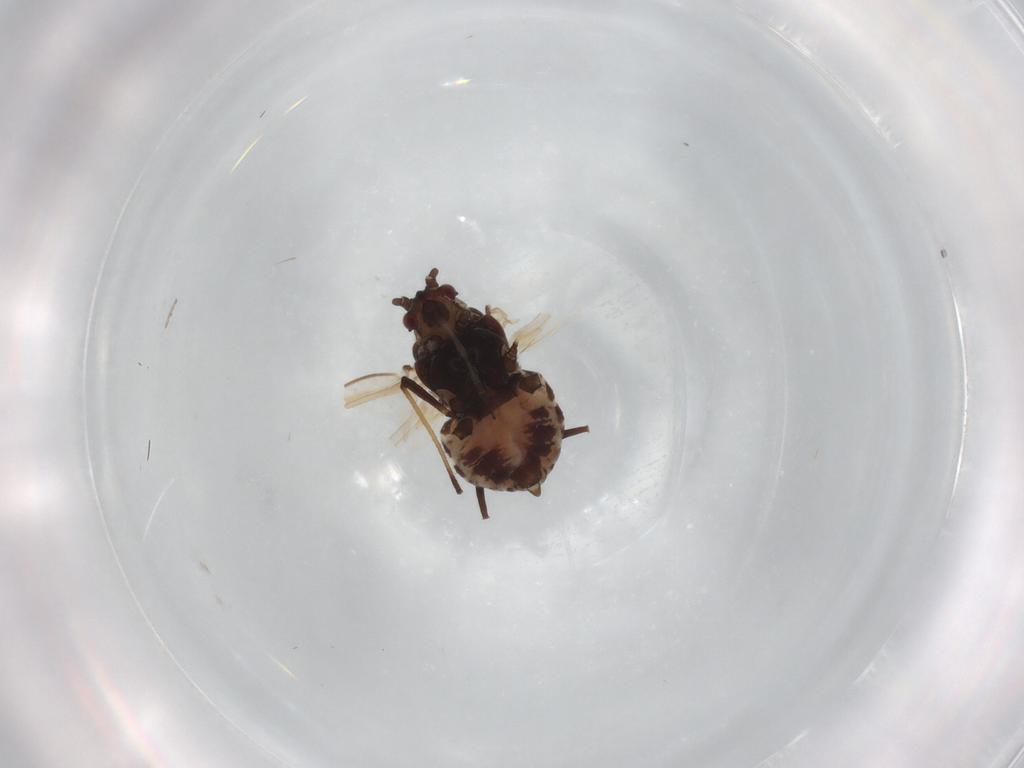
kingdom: Animalia
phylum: Arthropoda
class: Insecta
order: Hemiptera
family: Aphididae
